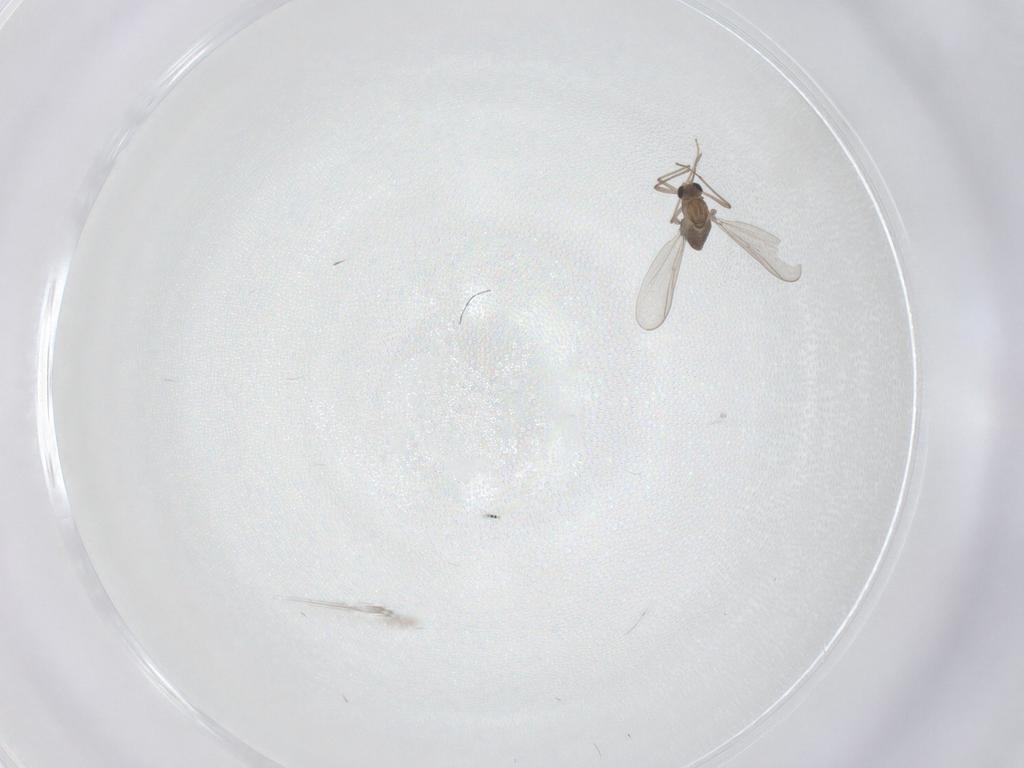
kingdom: Animalia
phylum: Arthropoda
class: Insecta
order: Diptera
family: Chironomidae
